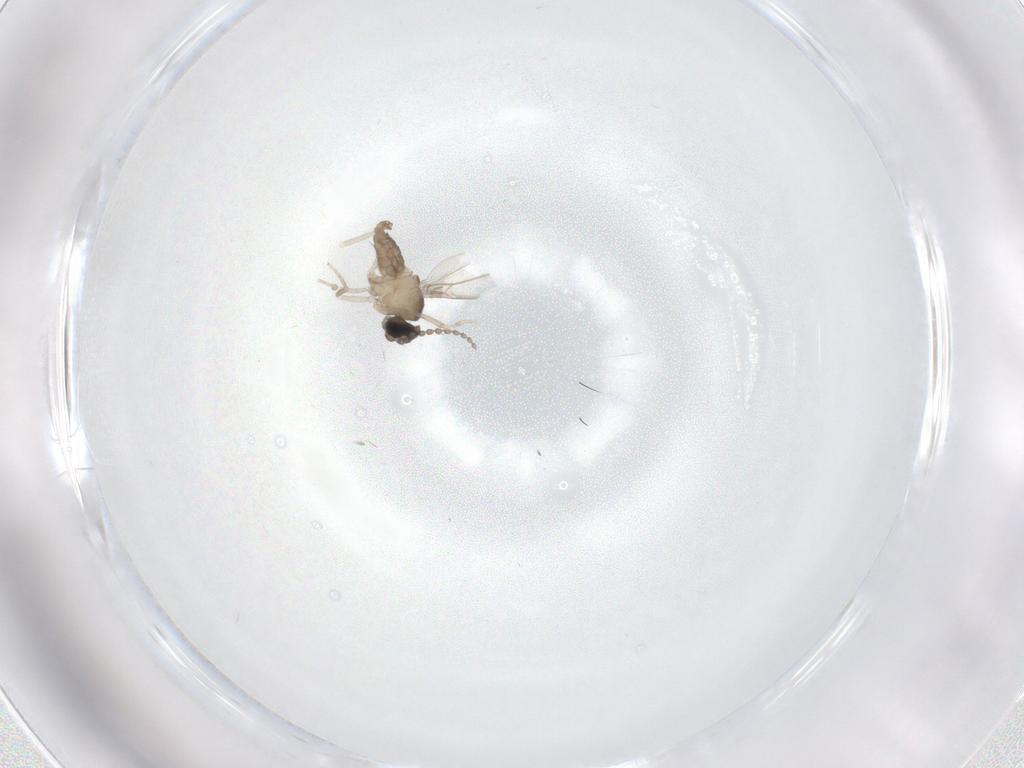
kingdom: Animalia
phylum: Arthropoda
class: Insecta
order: Diptera
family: Cecidomyiidae
